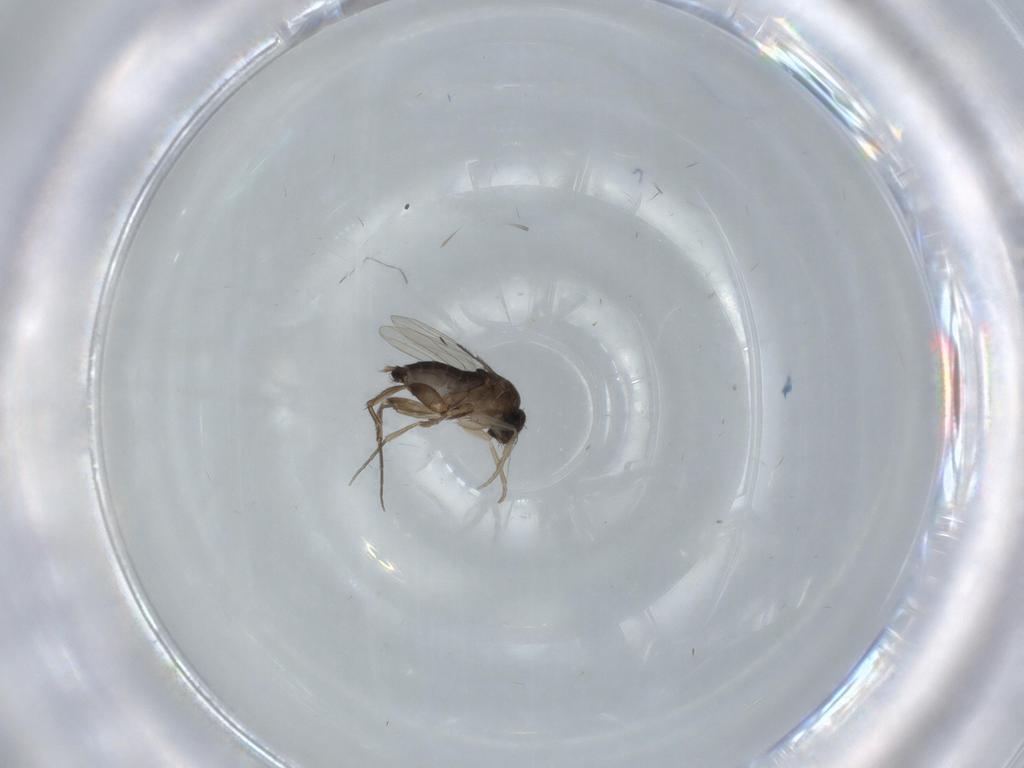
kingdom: Animalia
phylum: Arthropoda
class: Insecta
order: Diptera
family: Sciaridae
